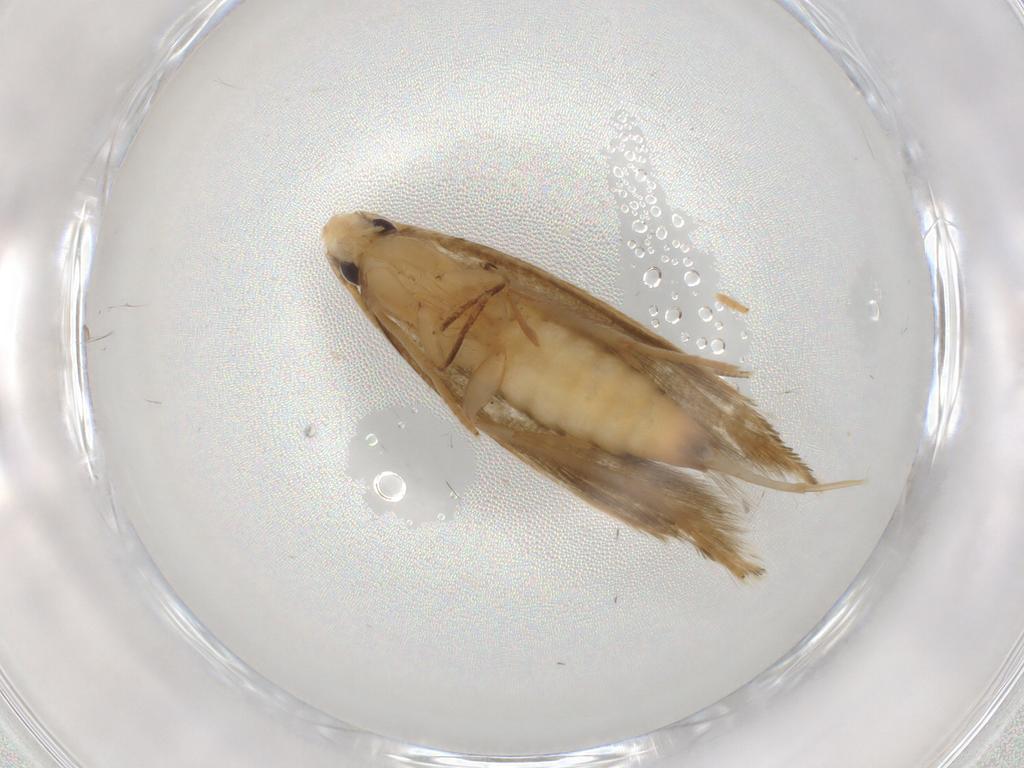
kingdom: Animalia
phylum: Arthropoda
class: Insecta
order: Lepidoptera
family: Tineidae
